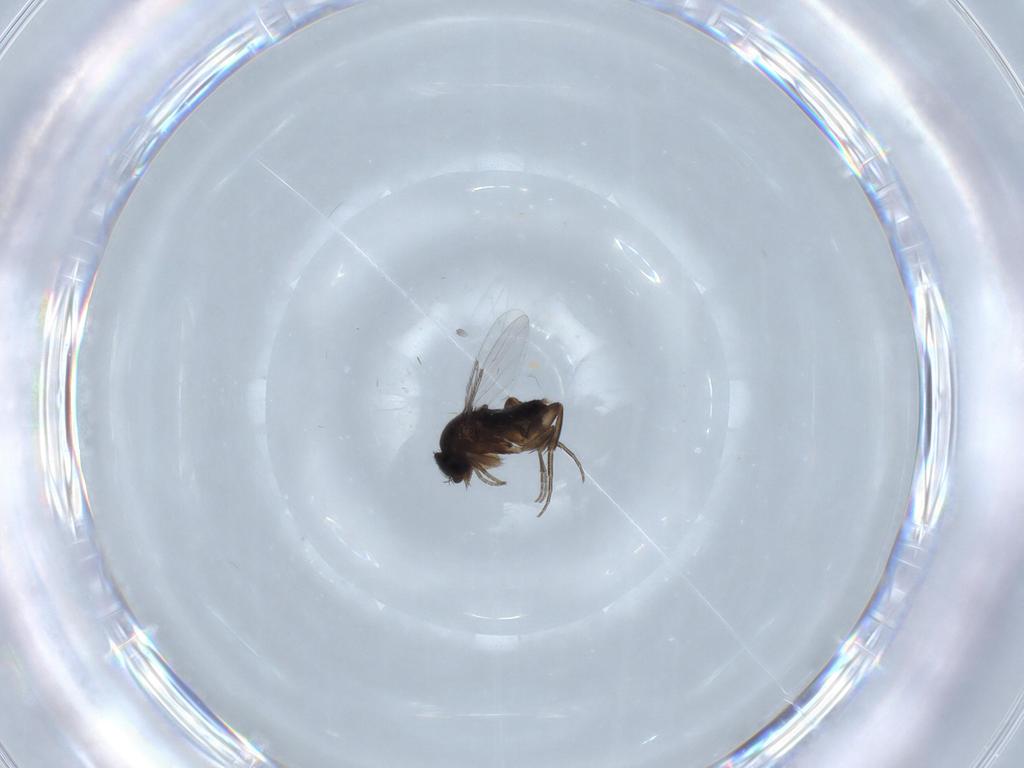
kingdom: Animalia
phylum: Arthropoda
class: Insecta
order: Diptera
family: Phoridae
